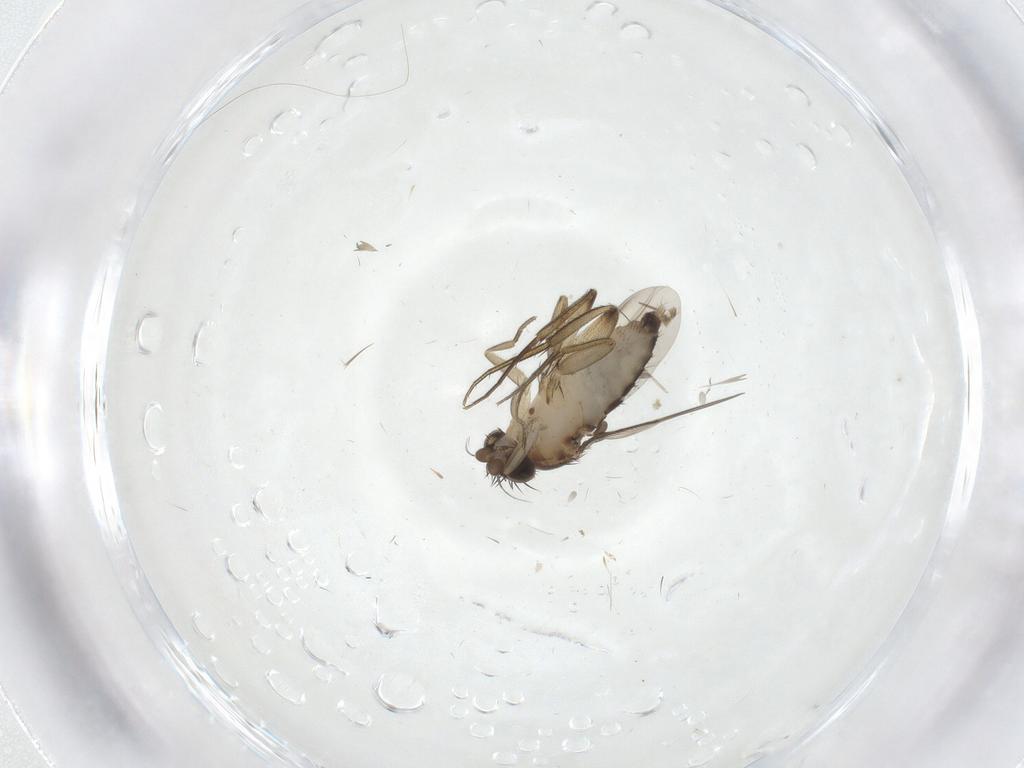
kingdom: Animalia
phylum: Arthropoda
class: Insecta
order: Diptera
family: Phoridae
